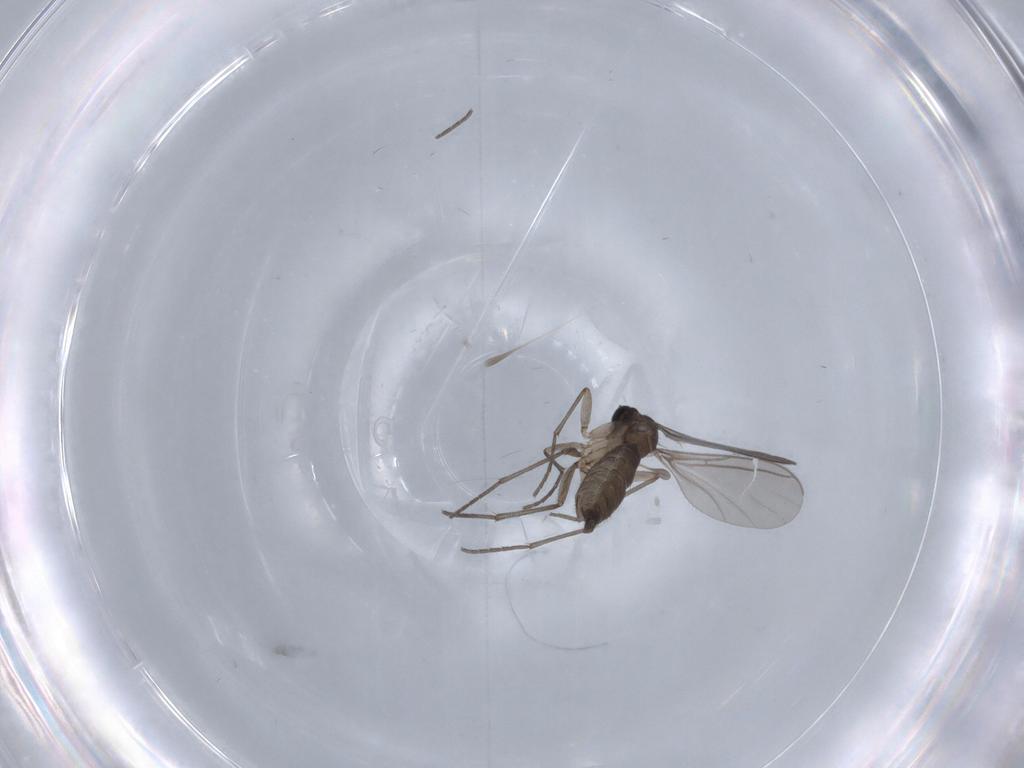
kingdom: Animalia
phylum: Arthropoda
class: Insecta
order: Diptera
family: Sciaridae
